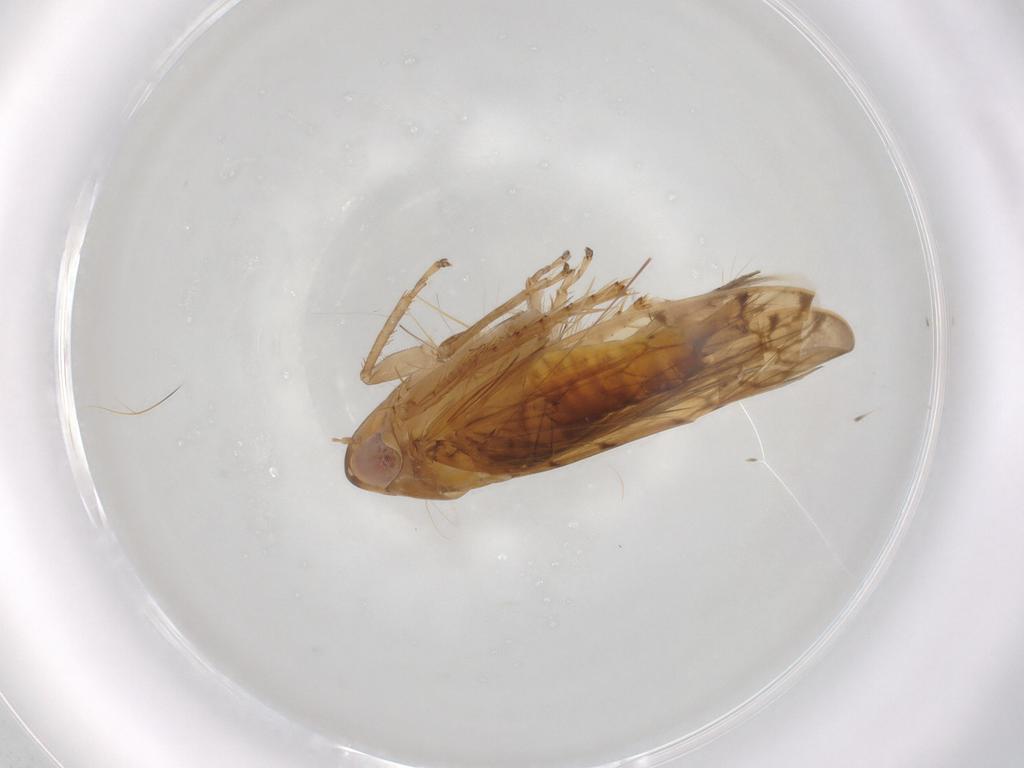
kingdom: Animalia
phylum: Arthropoda
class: Insecta
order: Hemiptera
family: Cicadellidae
